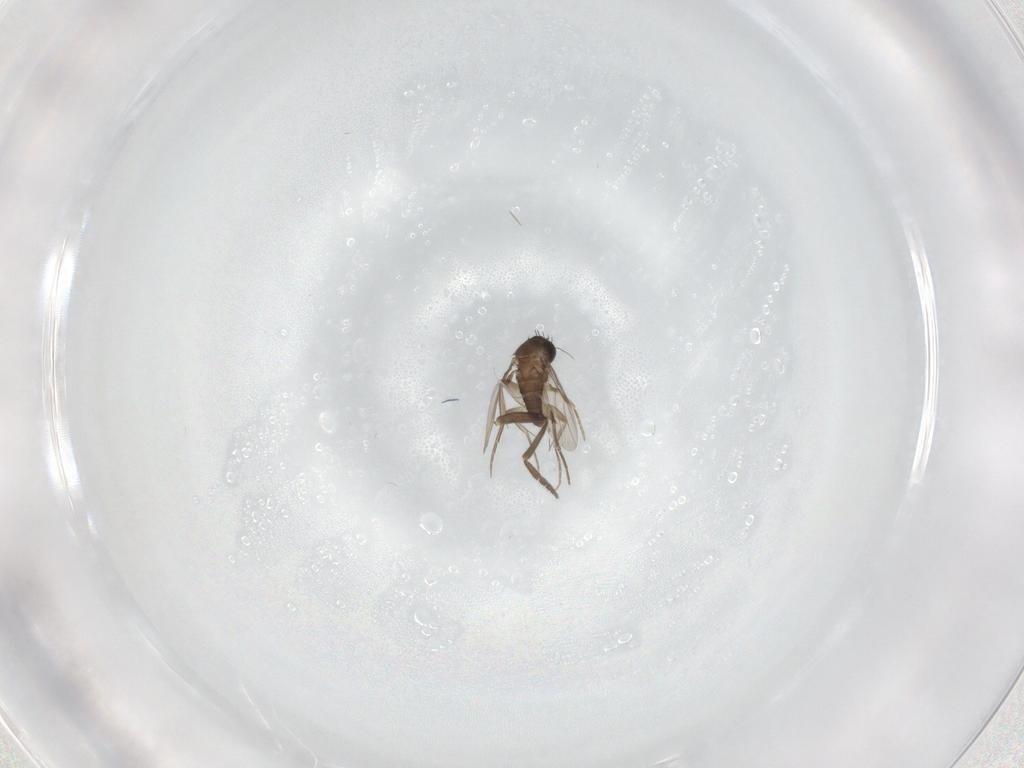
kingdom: Animalia
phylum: Arthropoda
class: Insecta
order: Diptera
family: Phoridae
